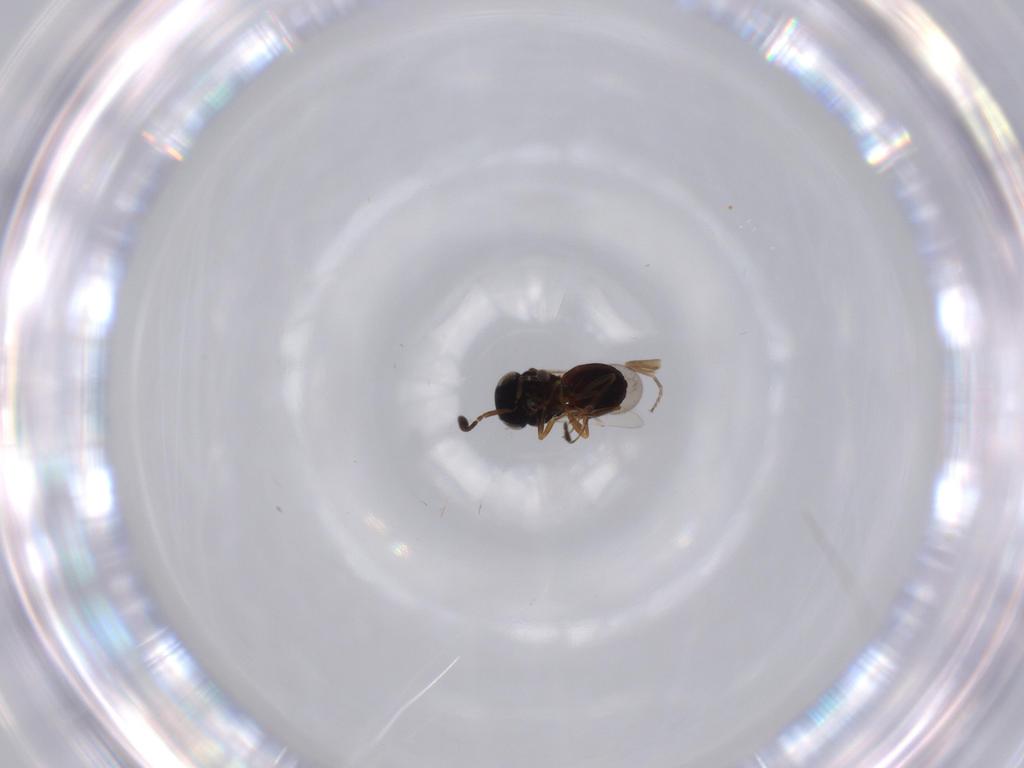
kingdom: Animalia
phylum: Arthropoda
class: Insecta
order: Hymenoptera
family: Scelionidae
